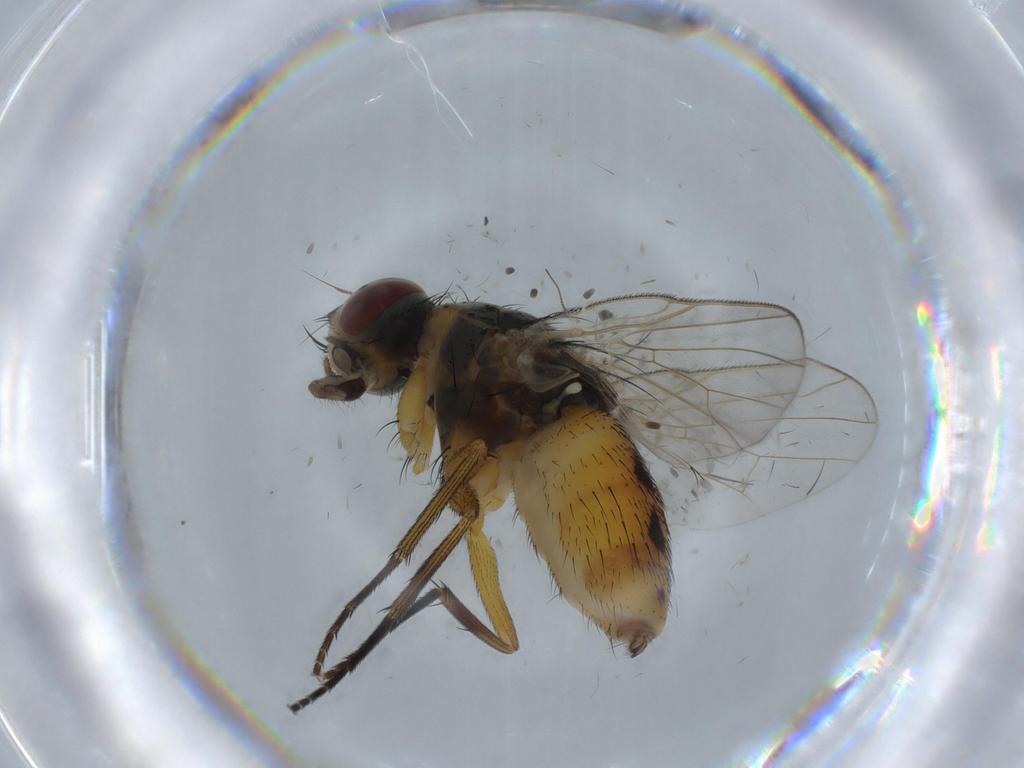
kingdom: Animalia
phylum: Arthropoda
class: Insecta
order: Diptera
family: Muscidae
